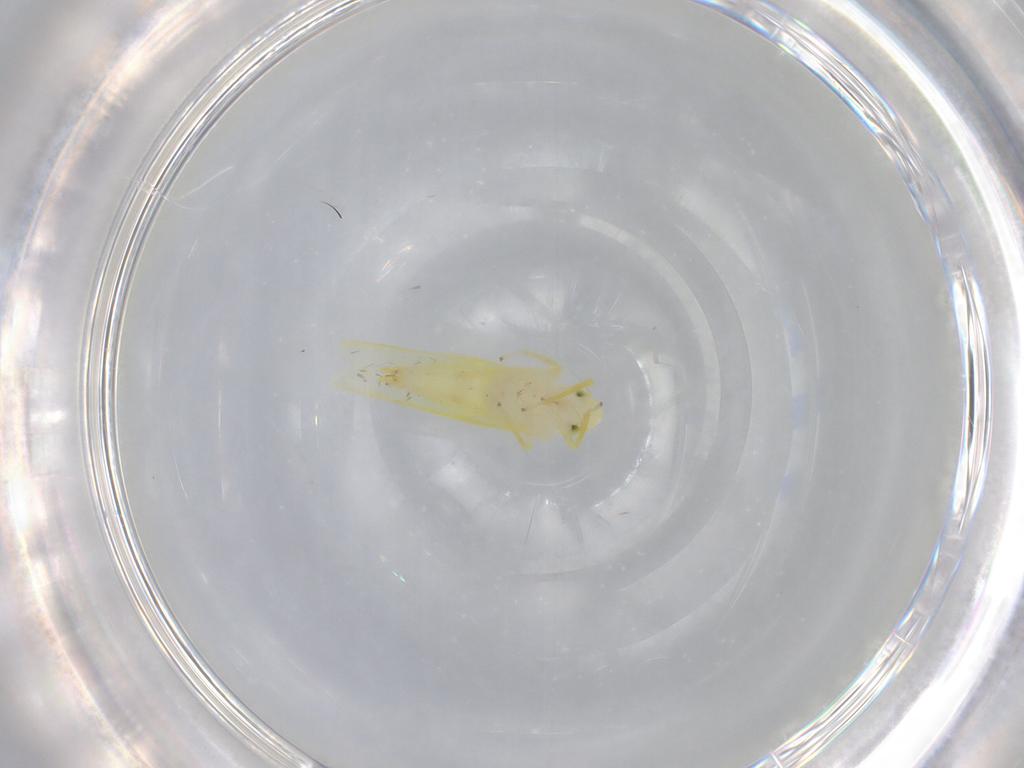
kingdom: Animalia
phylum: Arthropoda
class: Insecta
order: Hemiptera
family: Cicadellidae
